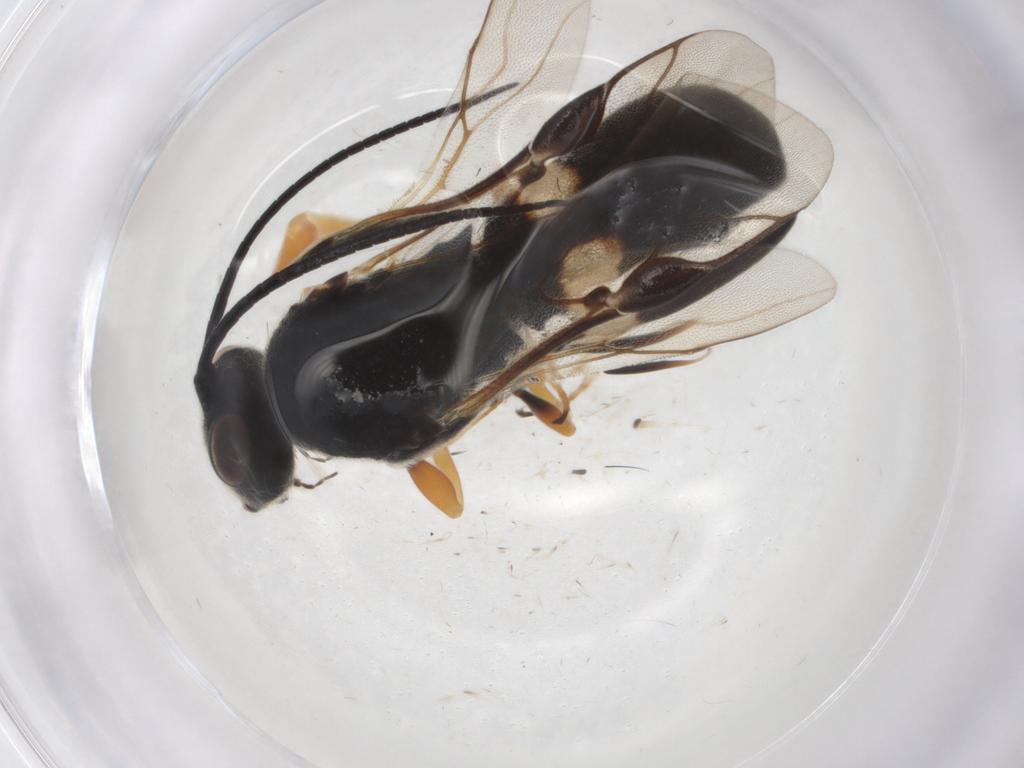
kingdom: Animalia
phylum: Arthropoda
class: Insecta
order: Hymenoptera
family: Braconidae
